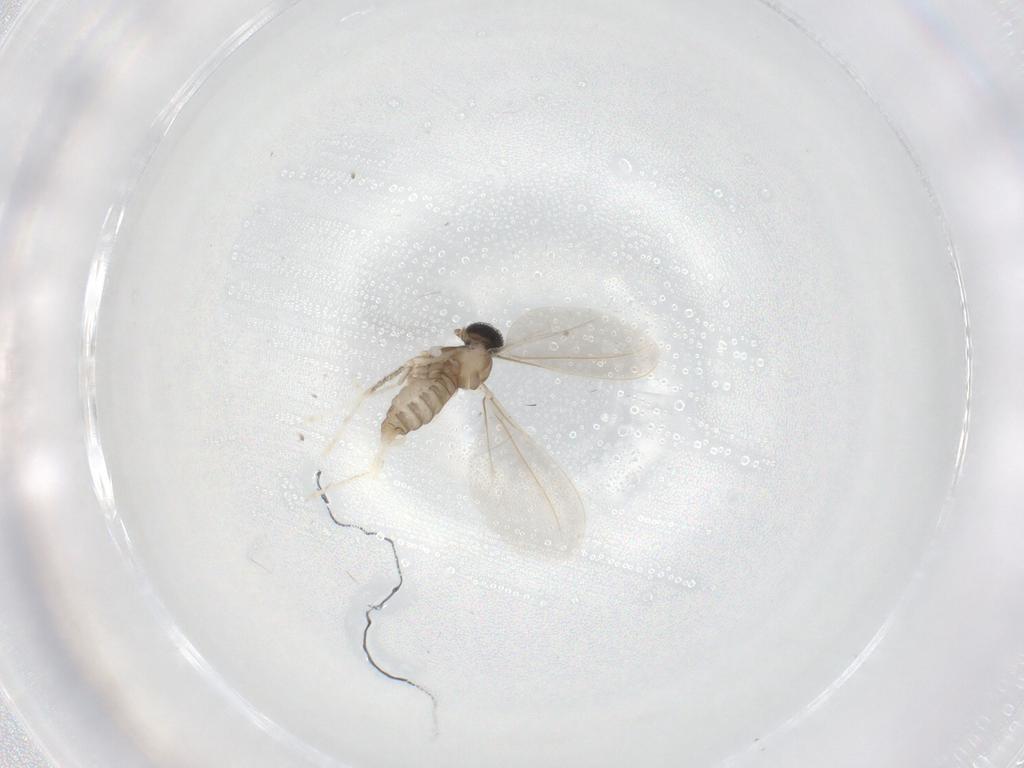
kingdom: Animalia
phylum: Arthropoda
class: Insecta
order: Diptera
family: Cecidomyiidae
